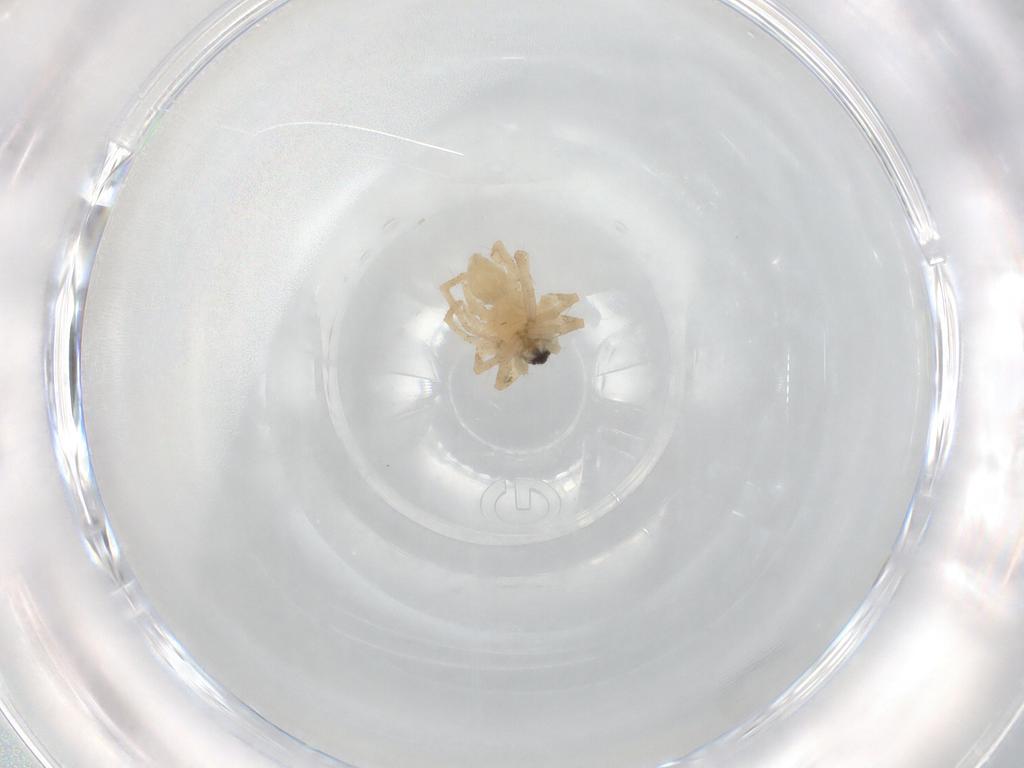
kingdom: Animalia
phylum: Arthropoda
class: Arachnida
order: Araneae
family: Lycosidae
